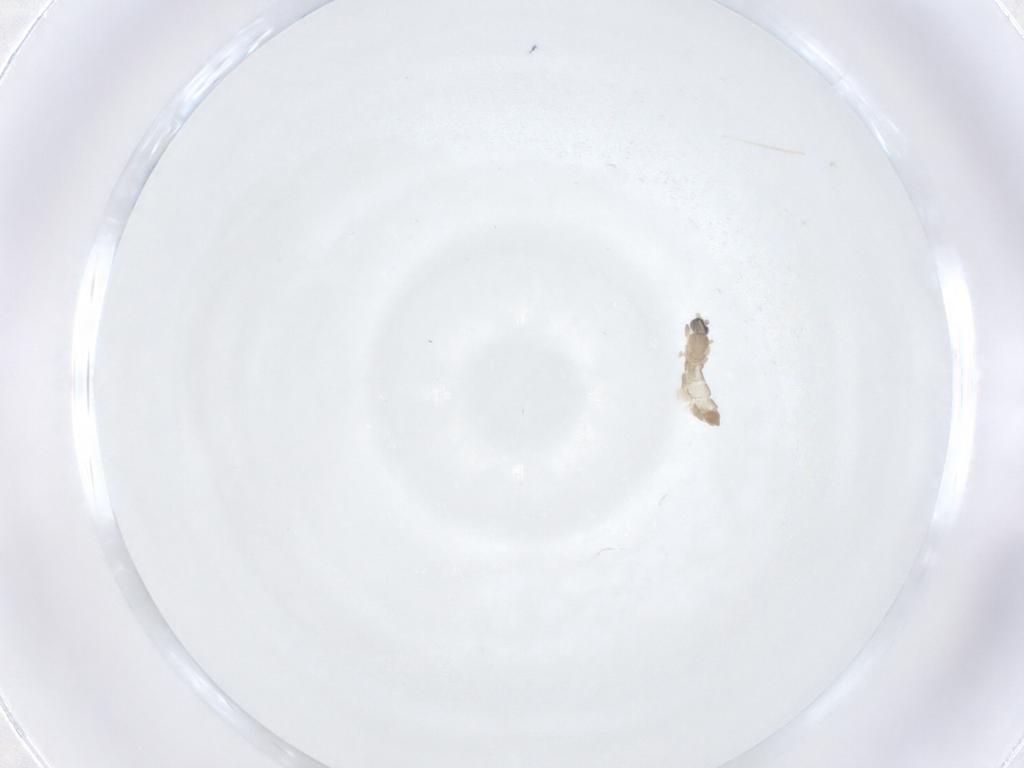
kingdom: Animalia
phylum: Arthropoda
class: Insecta
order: Diptera
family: Cecidomyiidae
